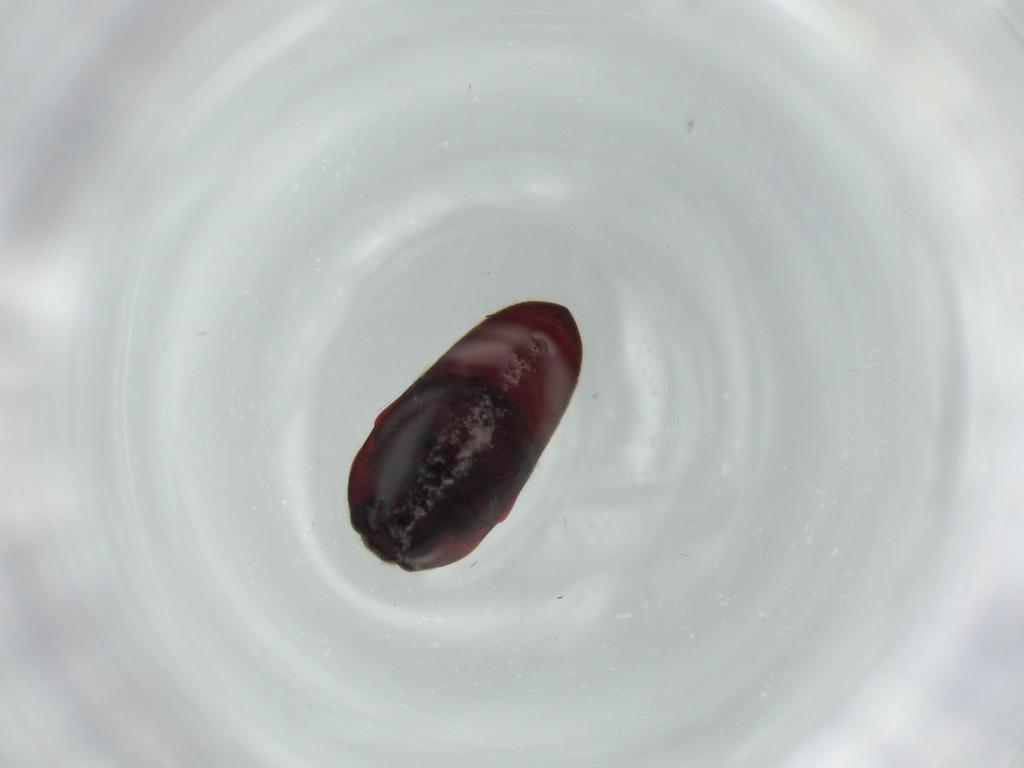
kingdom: Animalia
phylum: Arthropoda
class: Insecta
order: Coleoptera
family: Throscidae
